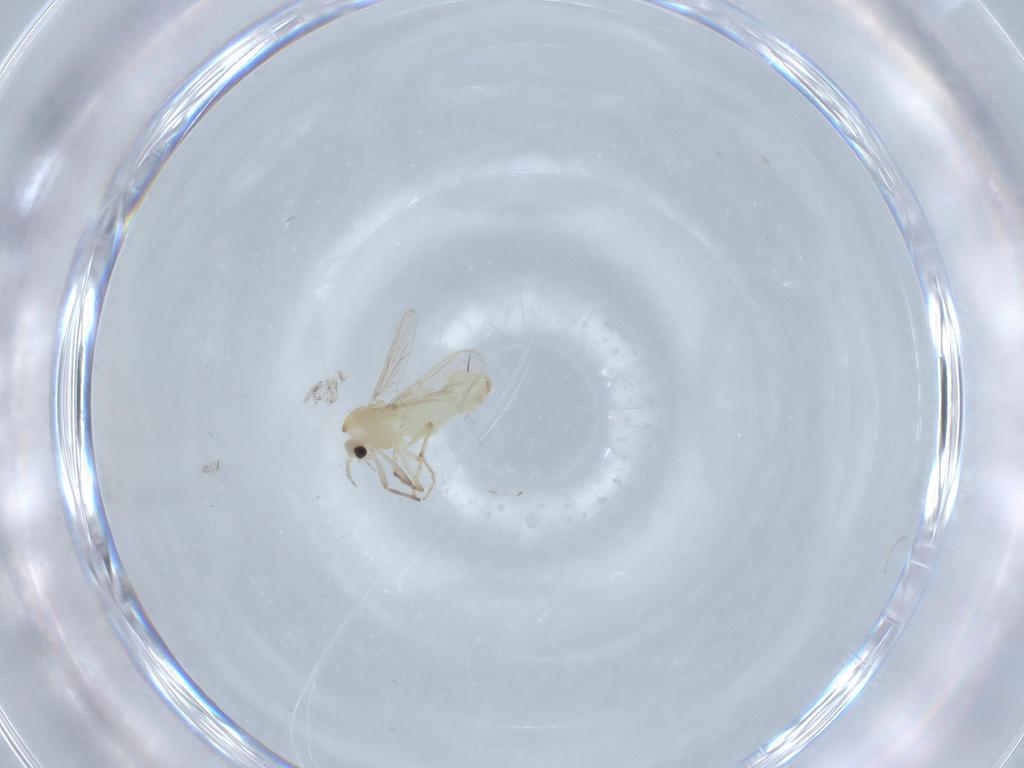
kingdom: Animalia
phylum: Arthropoda
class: Insecta
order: Diptera
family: Chironomidae
